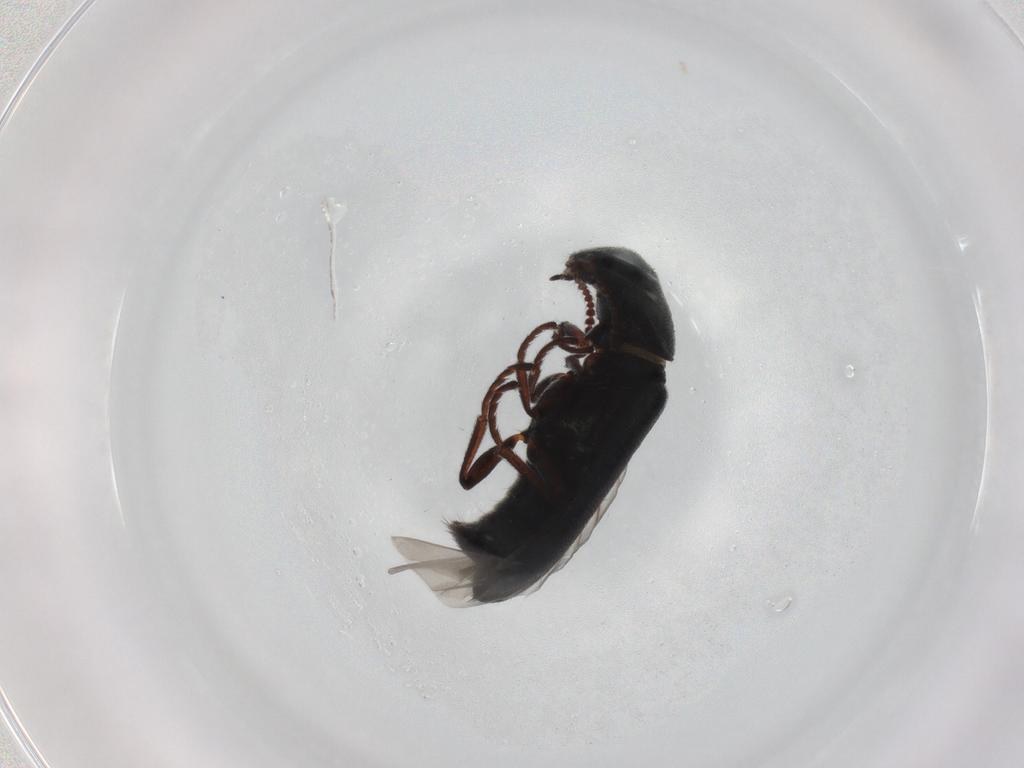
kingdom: Animalia
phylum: Arthropoda
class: Insecta
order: Coleoptera
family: Melyridae
